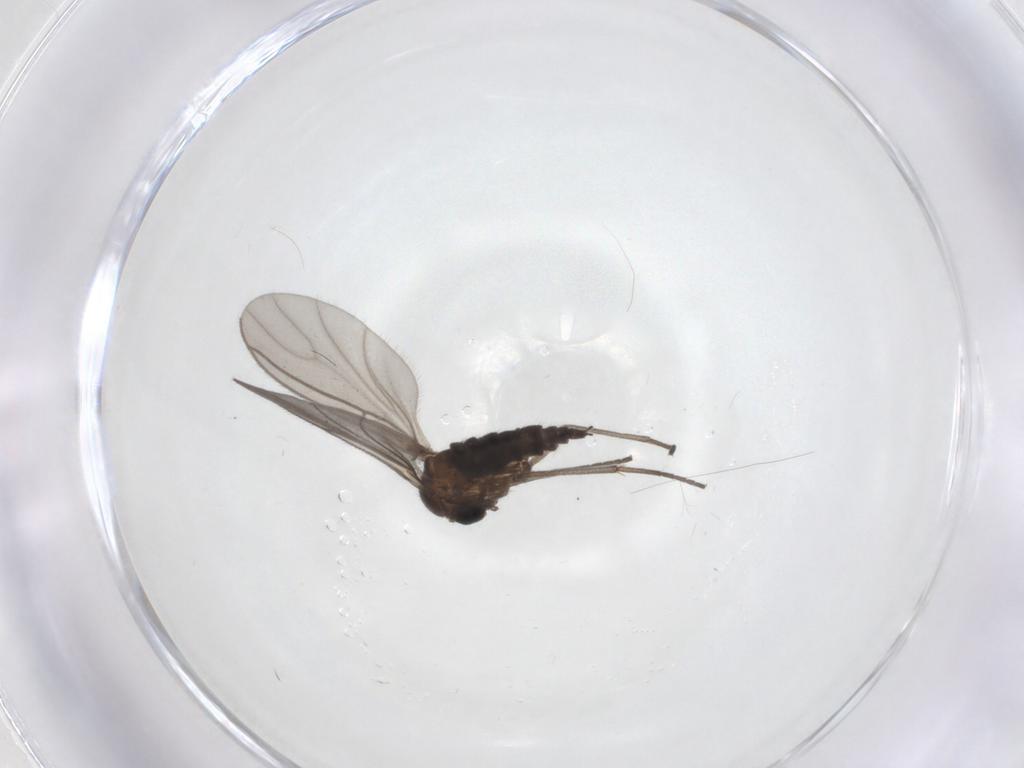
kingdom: Animalia
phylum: Arthropoda
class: Insecta
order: Diptera
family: Sciaridae
